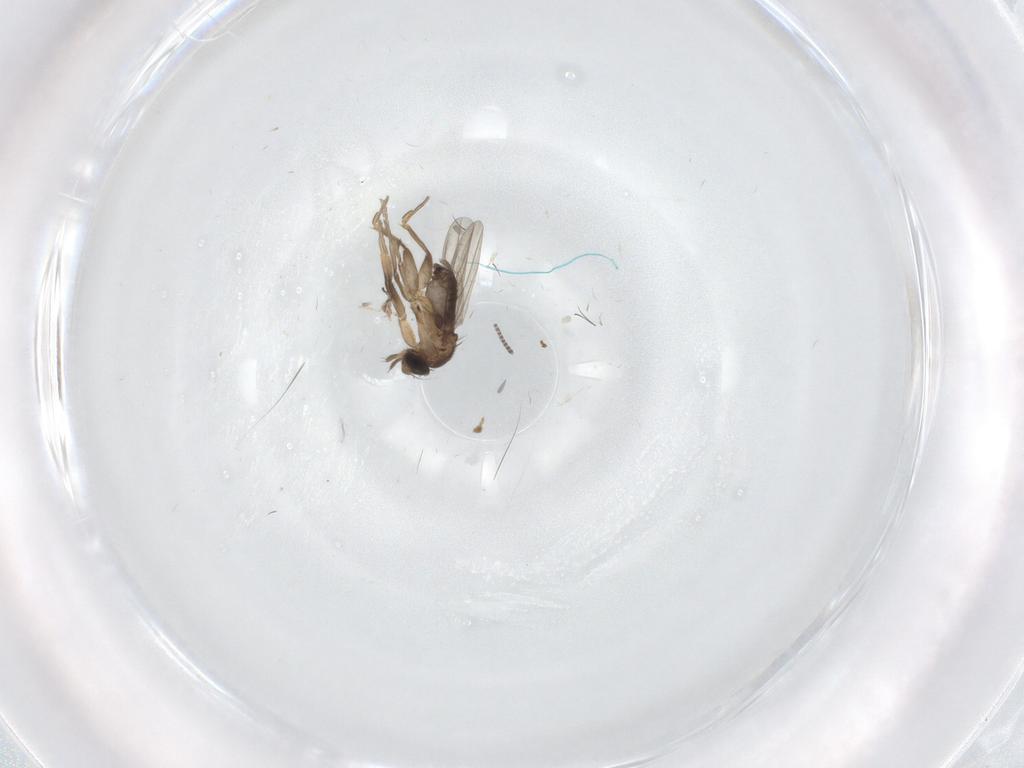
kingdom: Animalia
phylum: Arthropoda
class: Insecta
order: Diptera
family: Phoridae
